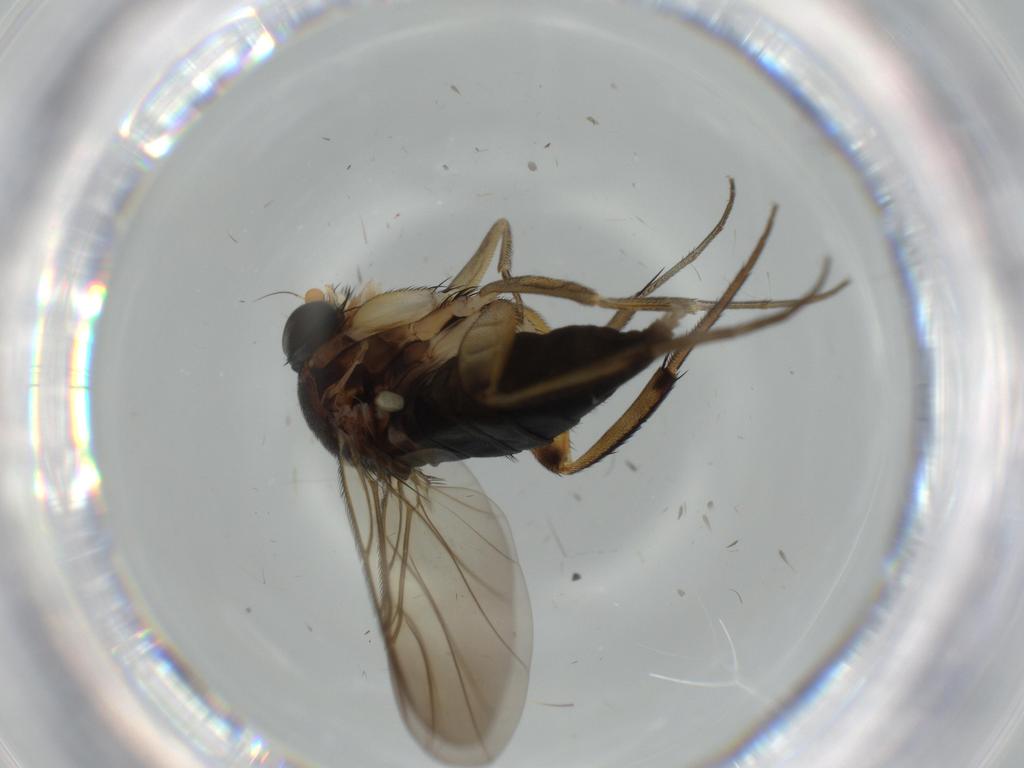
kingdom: Animalia
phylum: Arthropoda
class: Insecta
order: Diptera
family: Phoridae
